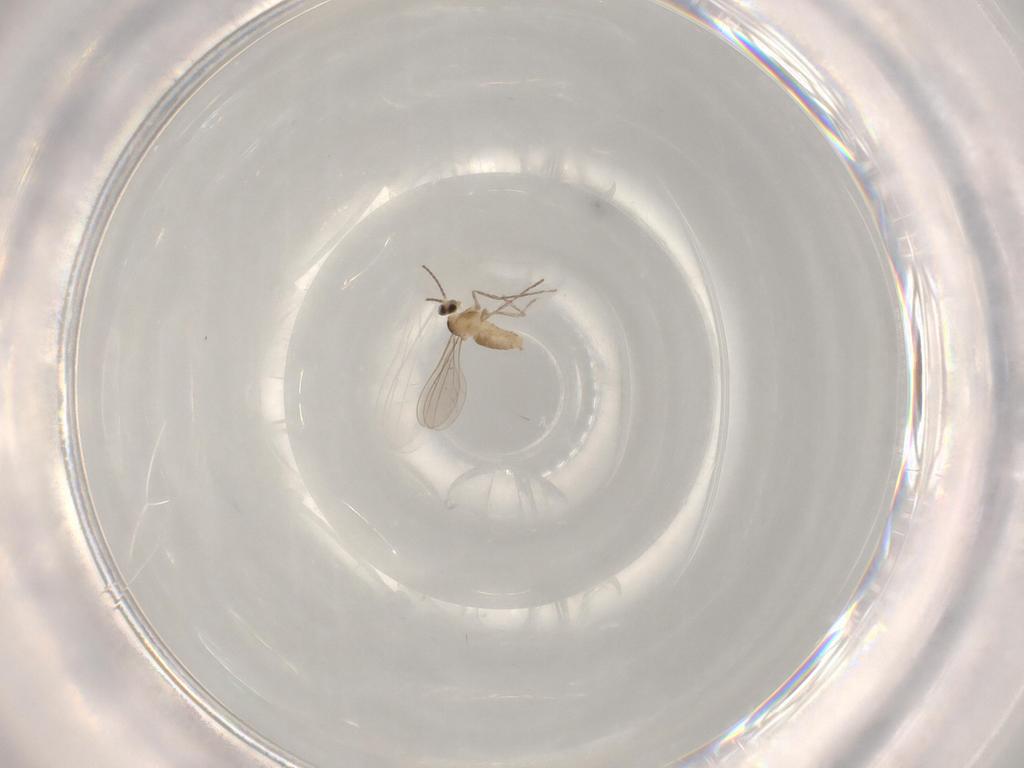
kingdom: Animalia
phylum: Arthropoda
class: Insecta
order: Diptera
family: Cecidomyiidae
